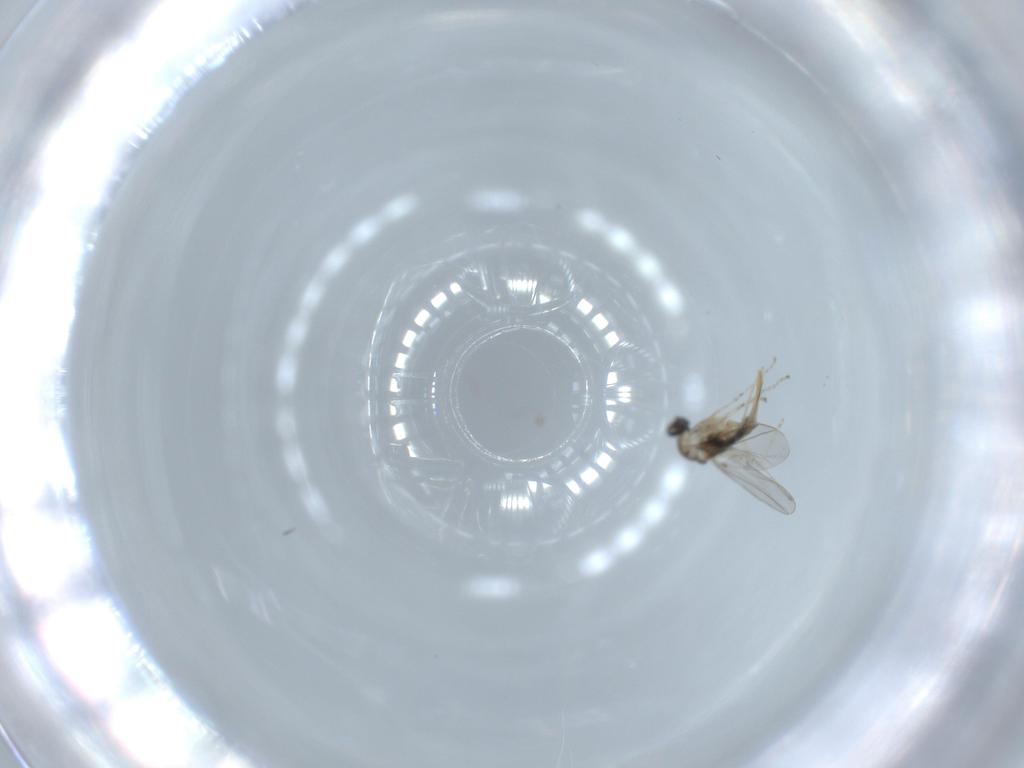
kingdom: Animalia
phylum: Arthropoda
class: Insecta
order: Diptera
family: Cecidomyiidae
